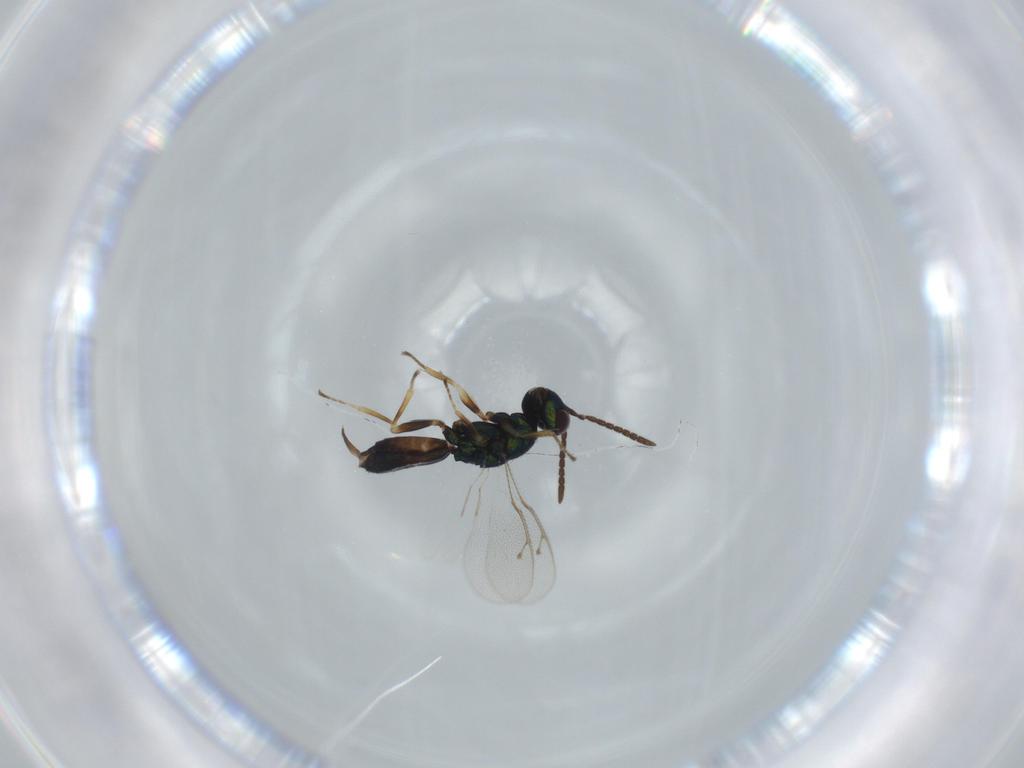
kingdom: Animalia
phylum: Arthropoda
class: Insecta
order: Hymenoptera
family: Pteromalidae
